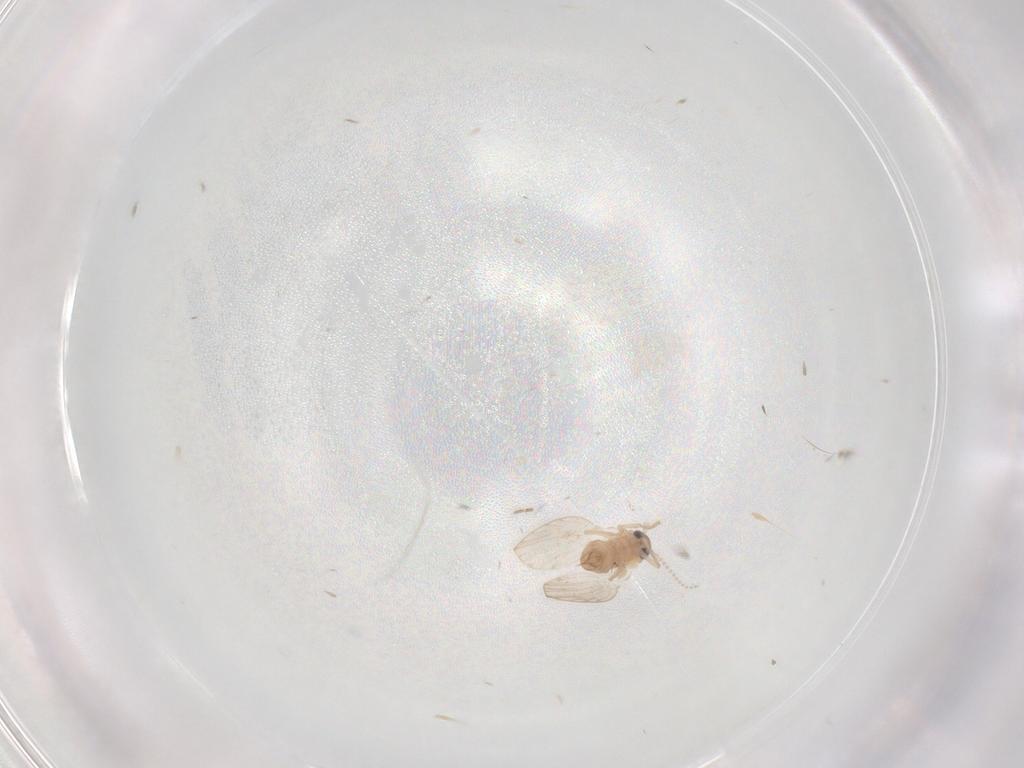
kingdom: Animalia
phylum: Arthropoda
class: Insecta
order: Diptera
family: Psychodidae
